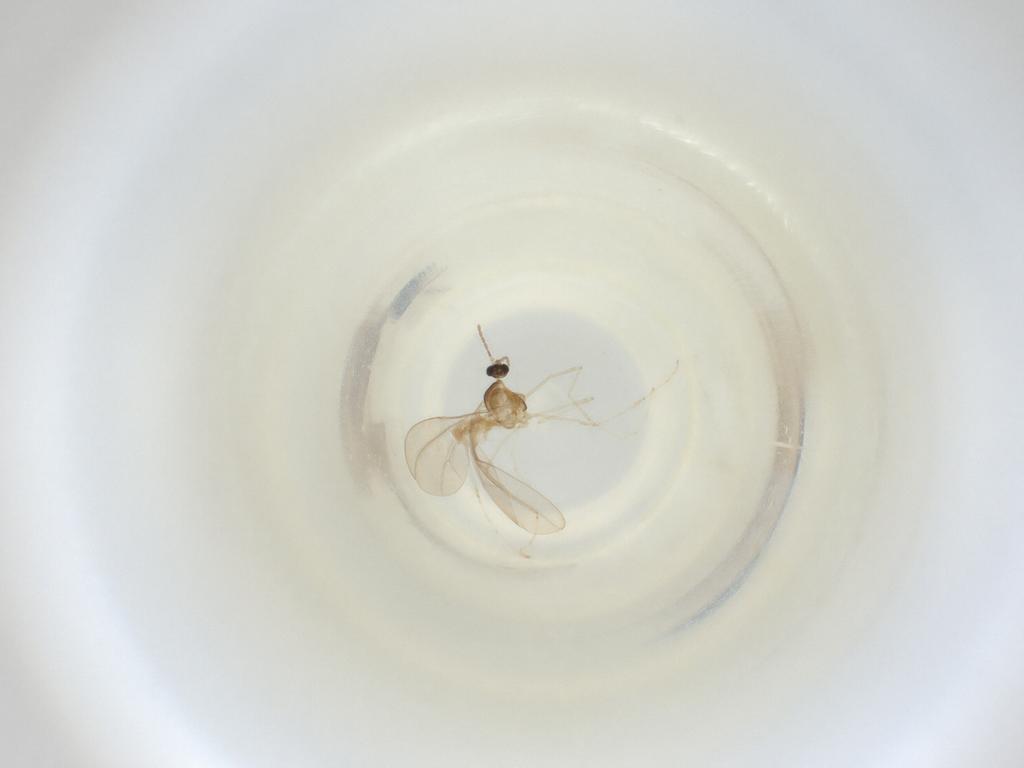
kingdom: Animalia
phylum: Arthropoda
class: Insecta
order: Diptera
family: Cecidomyiidae
